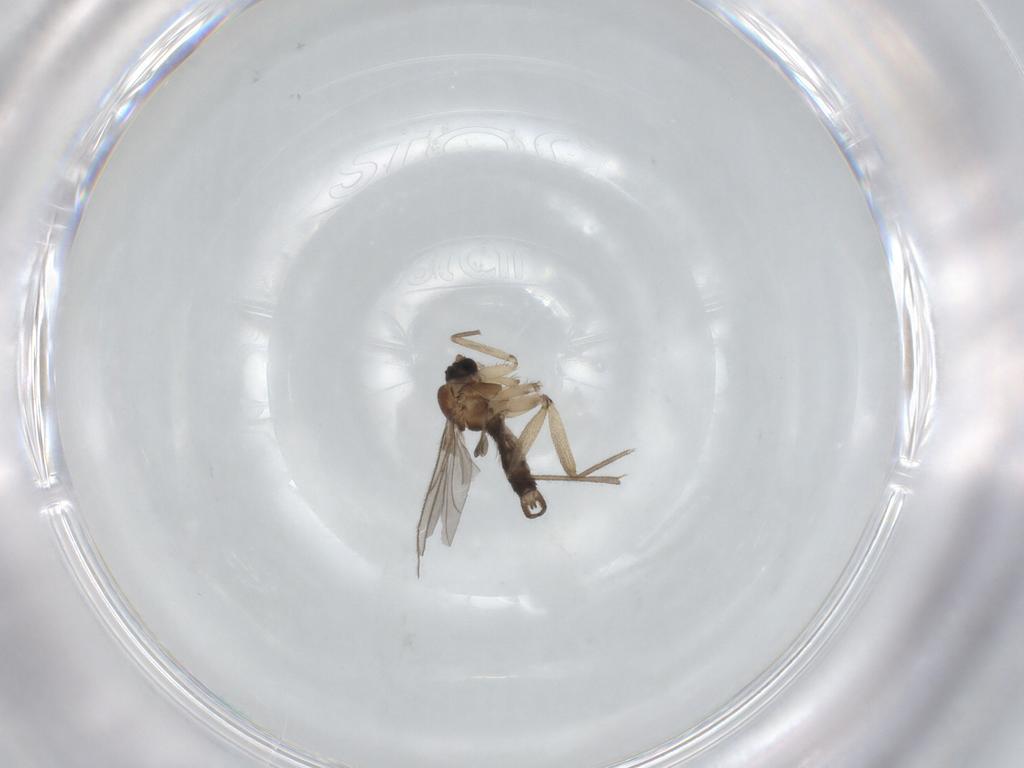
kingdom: Animalia
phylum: Arthropoda
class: Insecta
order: Diptera
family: Sciaridae
